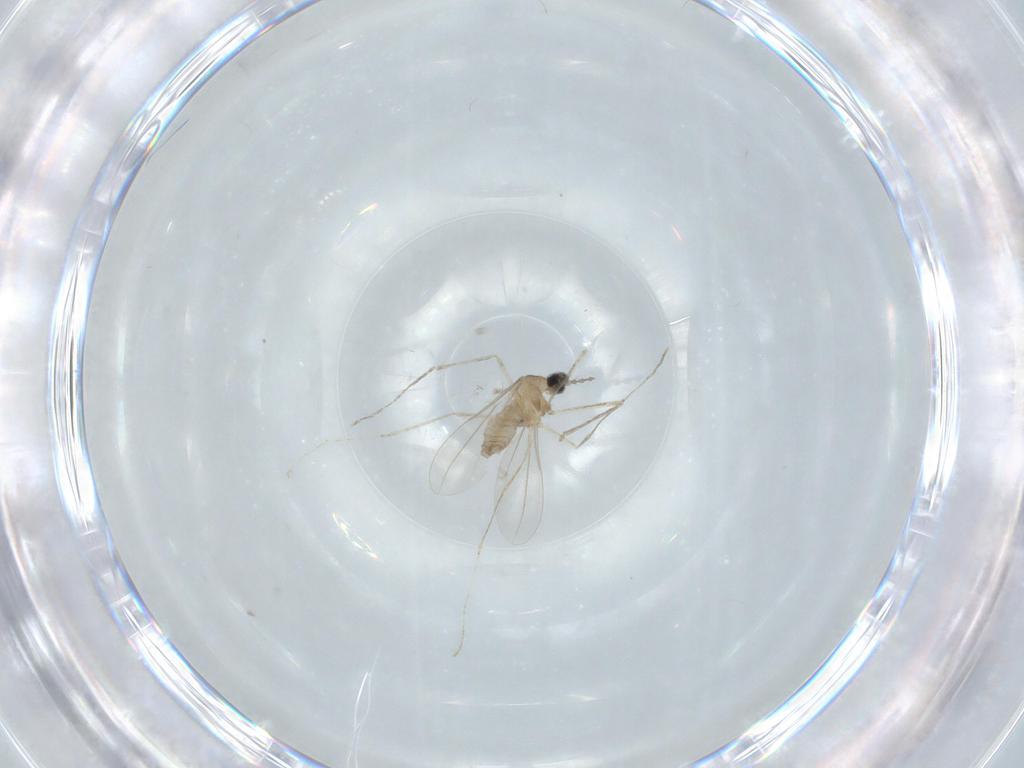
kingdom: Animalia
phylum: Arthropoda
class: Insecta
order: Diptera
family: Cecidomyiidae
